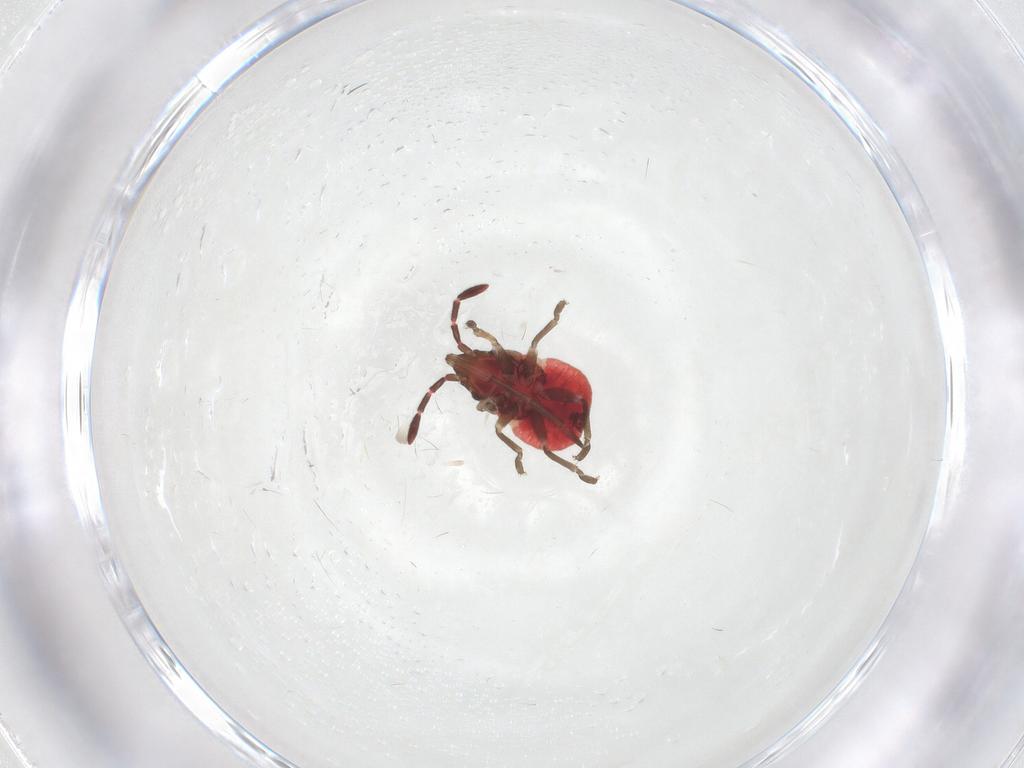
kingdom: Animalia
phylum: Arthropoda
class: Insecta
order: Hemiptera
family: Rhyparochromidae
